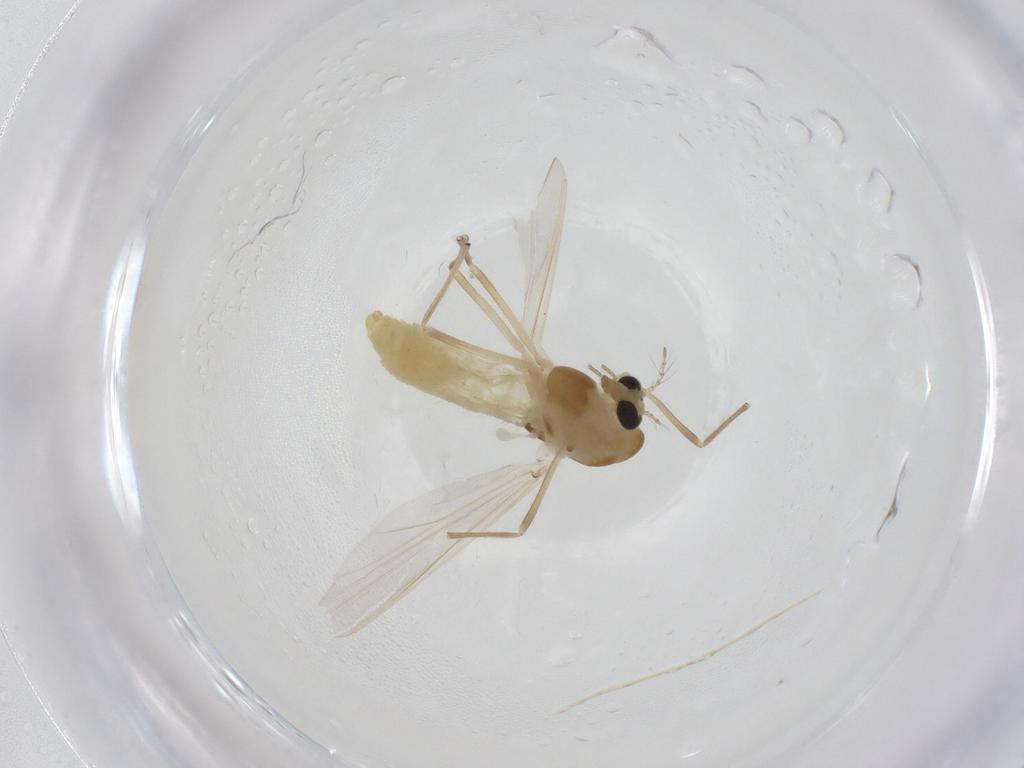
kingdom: Animalia
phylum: Arthropoda
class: Insecta
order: Diptera
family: Chironomidae
